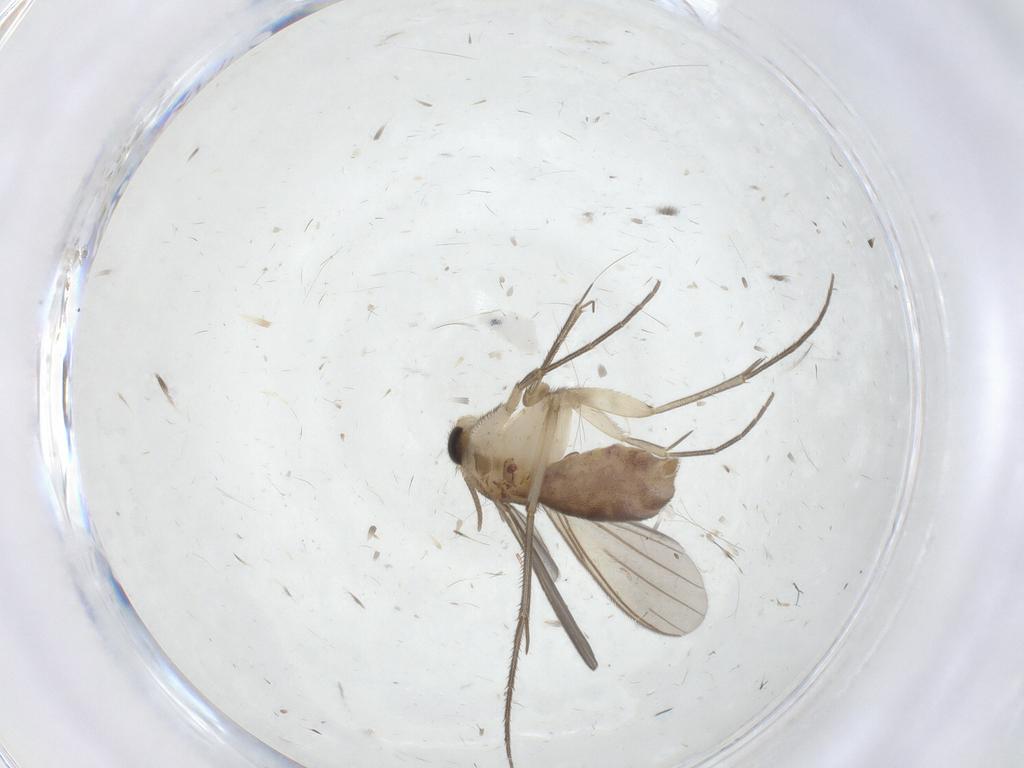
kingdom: Animalia
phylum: Arthropoda
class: Insecta
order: Diptera
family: Mycetophilidae
